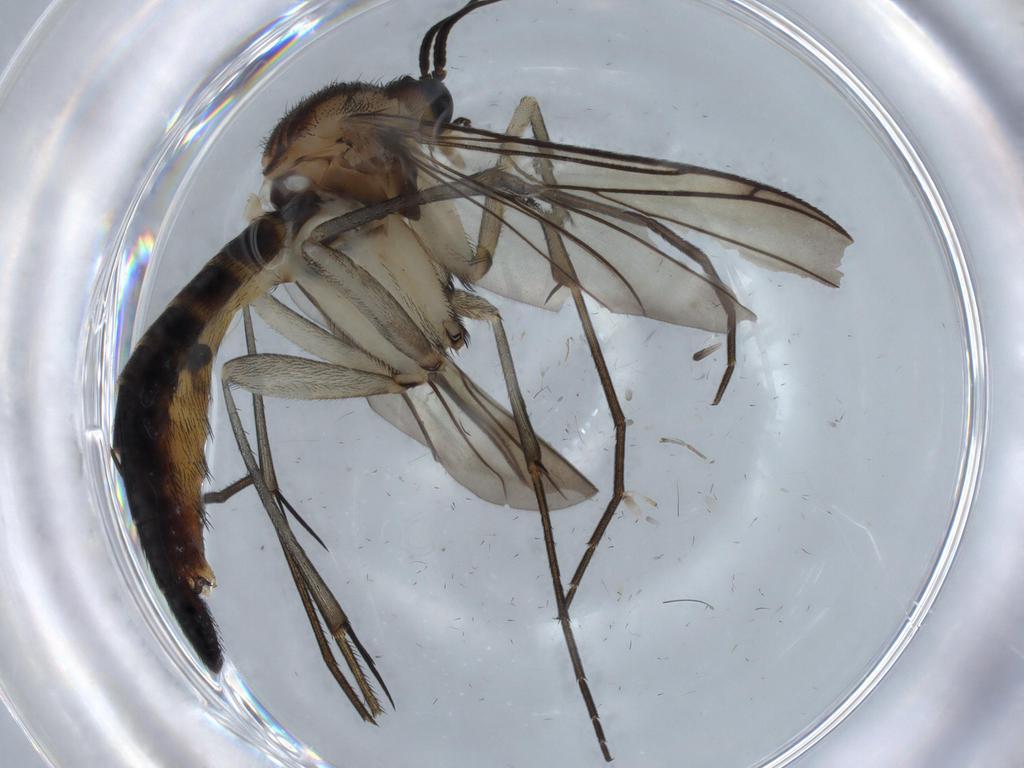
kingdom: Animalia
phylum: Arthropoda
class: Insecta
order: Diptera
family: Keroplatidae
